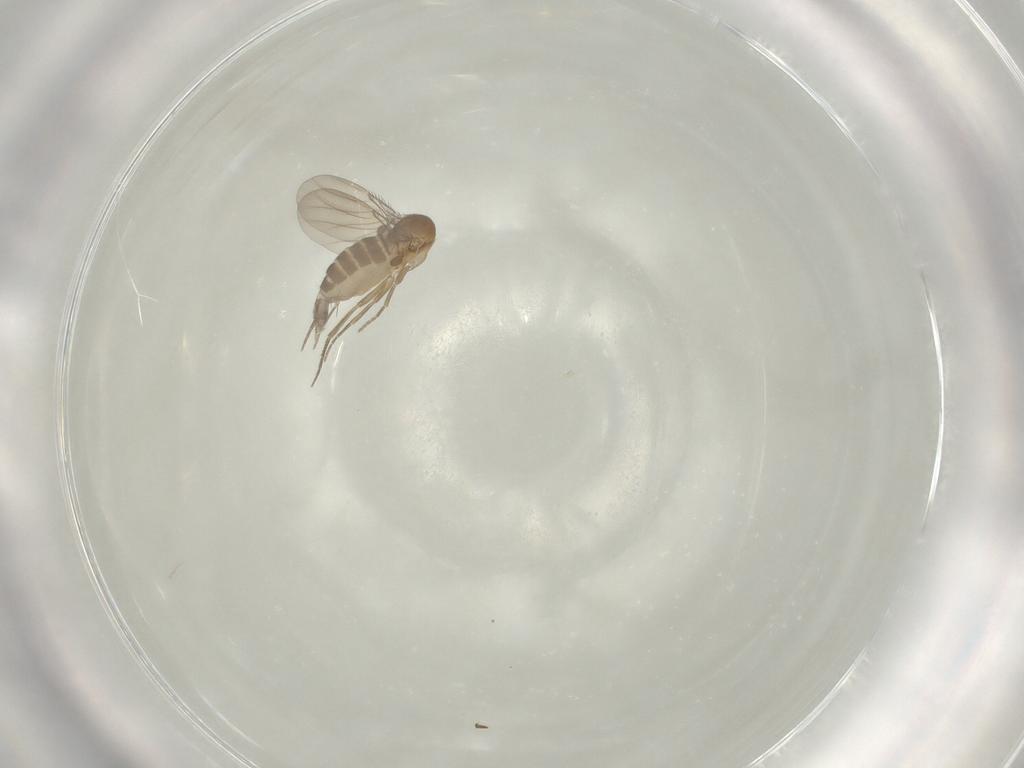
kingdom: Animalia
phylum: Arthropoda
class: Insecta
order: Diptera
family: Phoridae
